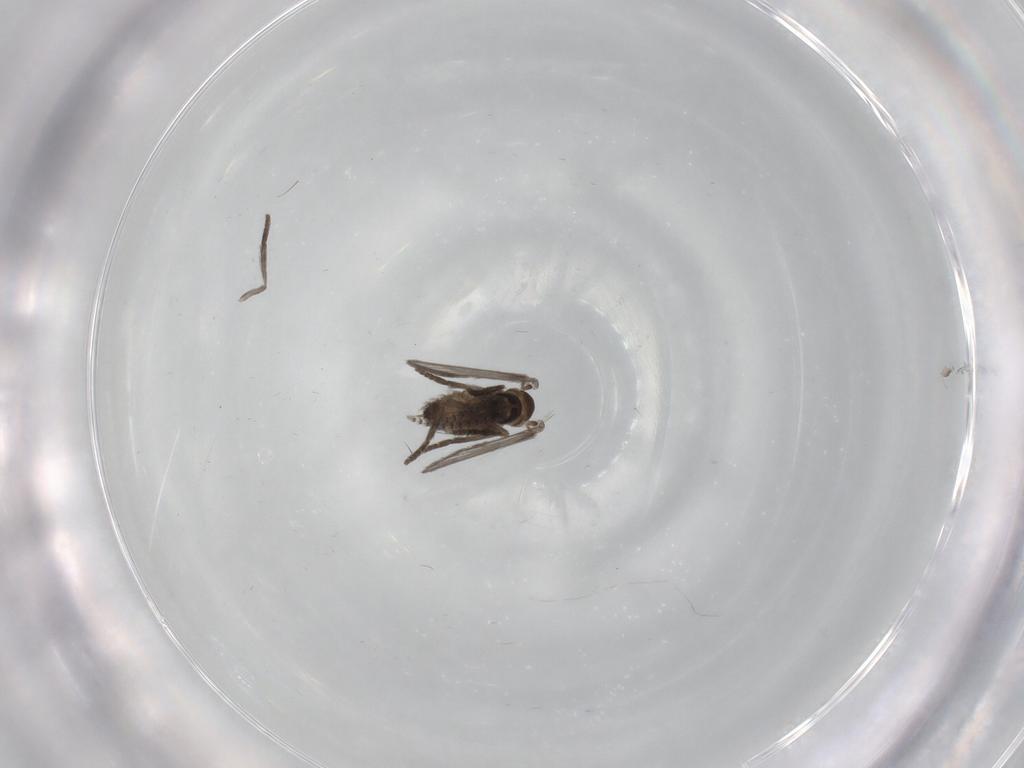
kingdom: Animalia
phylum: Arthropoda
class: Insecta
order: Diptera
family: Psychodidae
